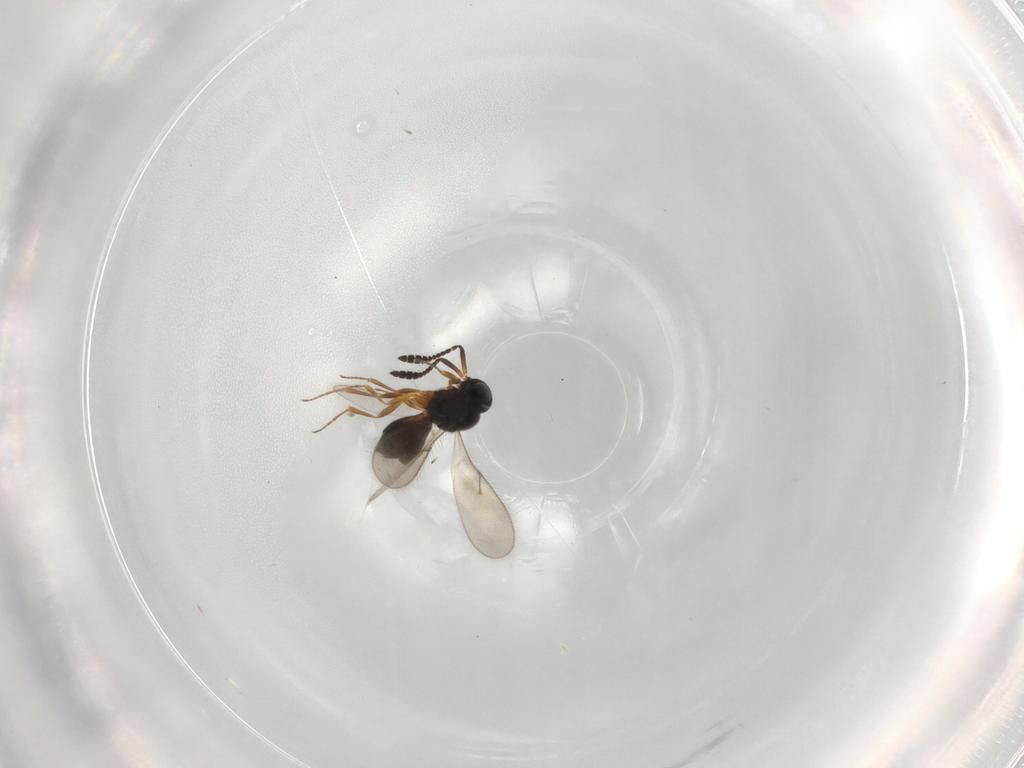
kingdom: Animalia
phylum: Arthropoda
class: Insecta
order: Hymenoptera
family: Scelionidae
